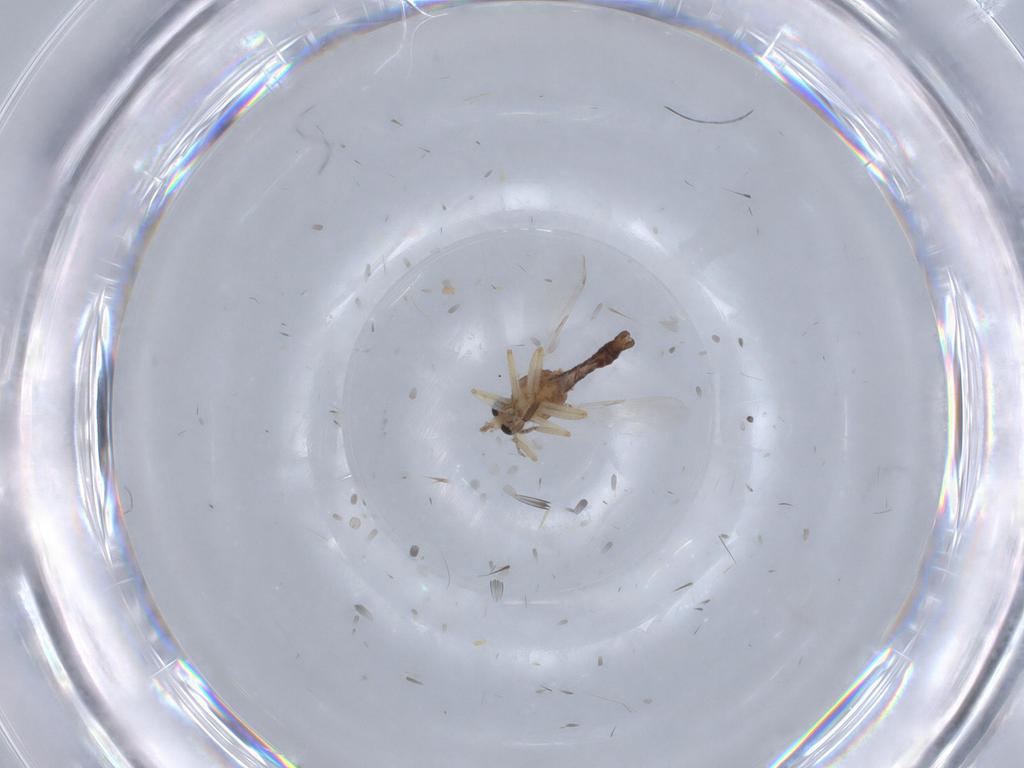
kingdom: Animalia
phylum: Arthropoda
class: Insecta
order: Diptera
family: Ceratopogonidae
